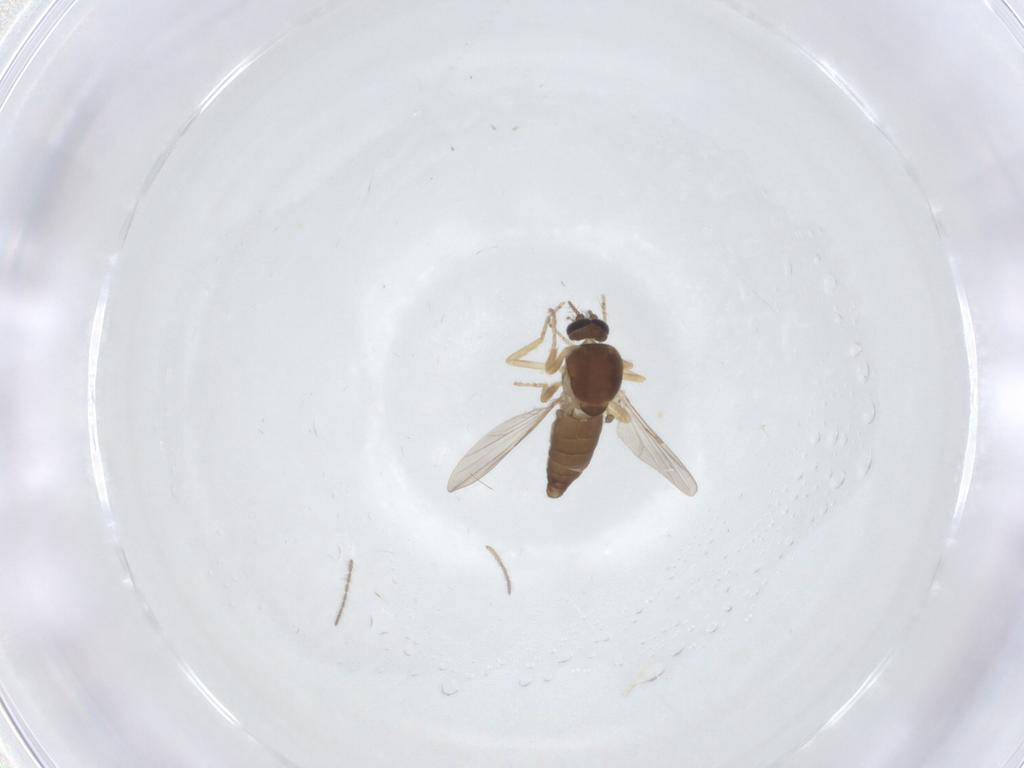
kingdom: Animalia
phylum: Arthropoda
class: Insecta
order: Diptera
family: Ceratopogonidae
